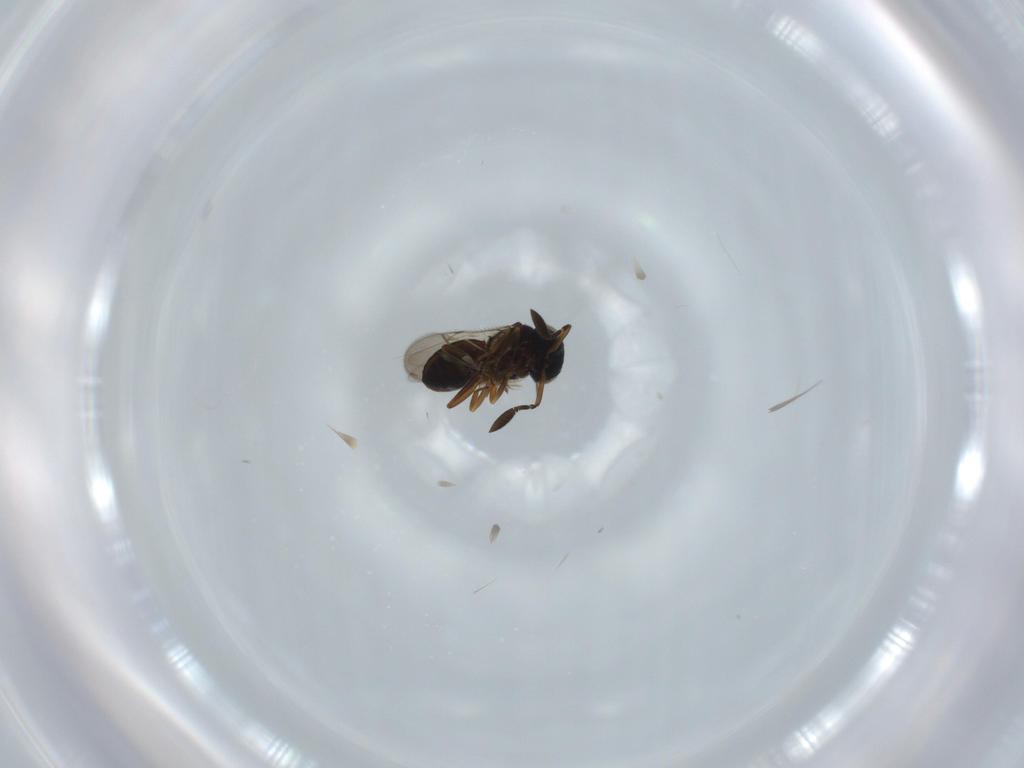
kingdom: Animalia
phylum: Arthropoda
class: Insecta
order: Coleoptera
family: Curculionidae
